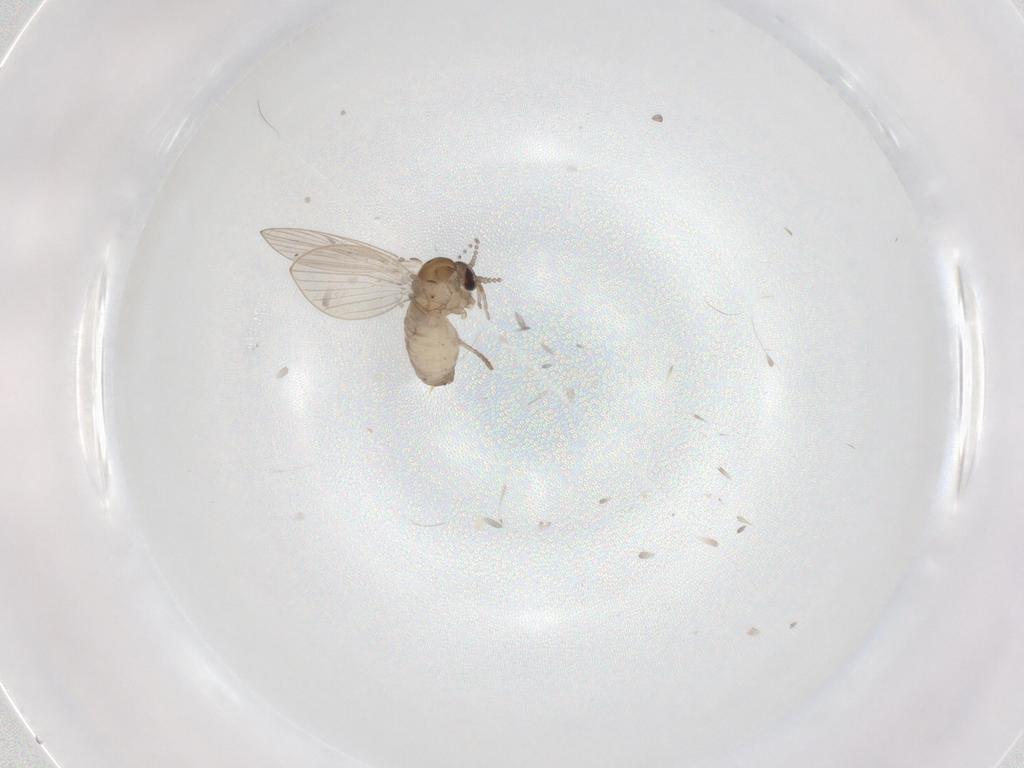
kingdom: Animalia
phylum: Arthropoda
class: Insecta
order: Diptera
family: Psychodidae
